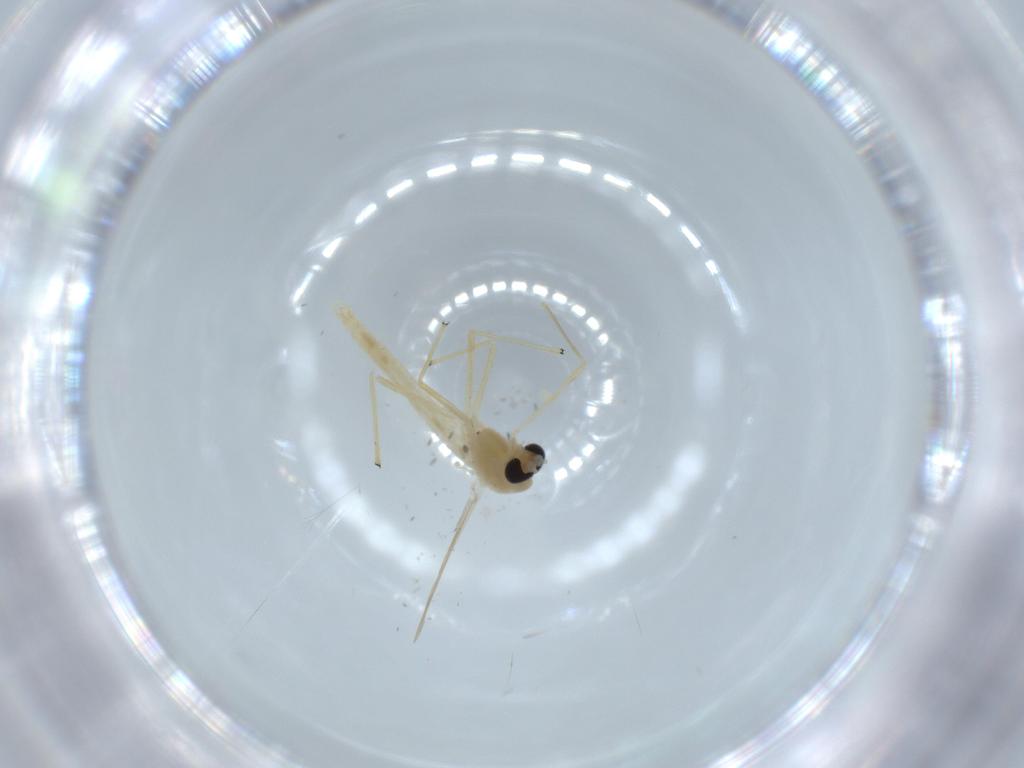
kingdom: Animalia
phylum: Arthropoda
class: Insecta
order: Diptera
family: Chironomidae
